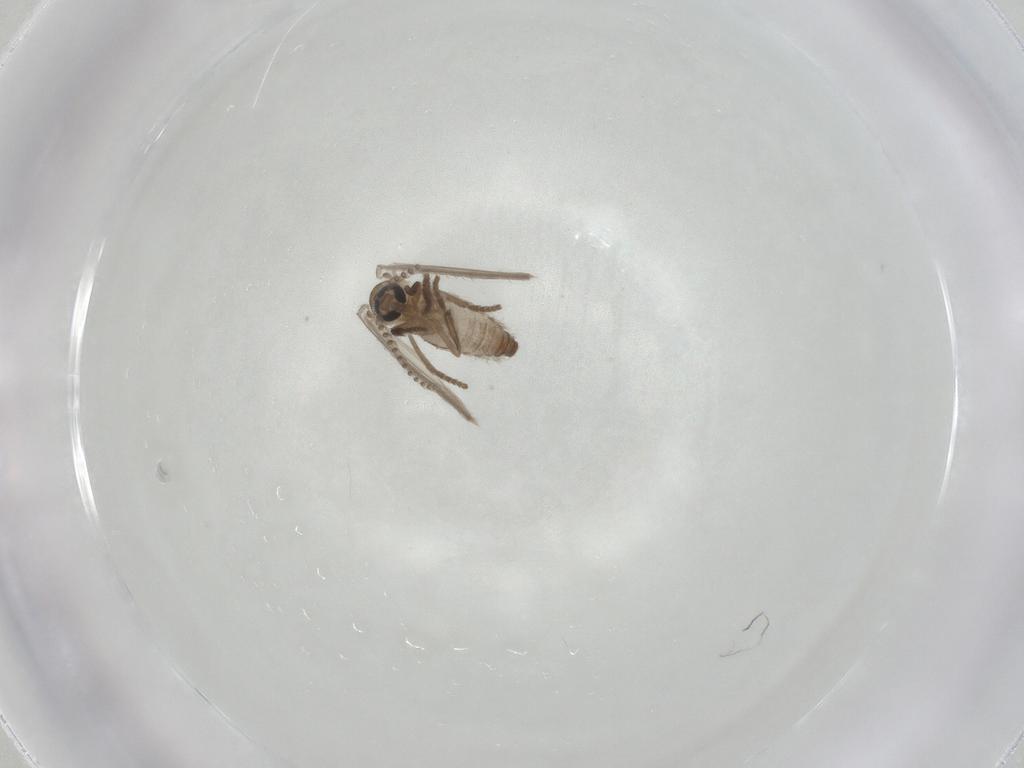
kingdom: Animalia
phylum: Arthropoda
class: Insecta
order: Diptera
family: Psychodidae
